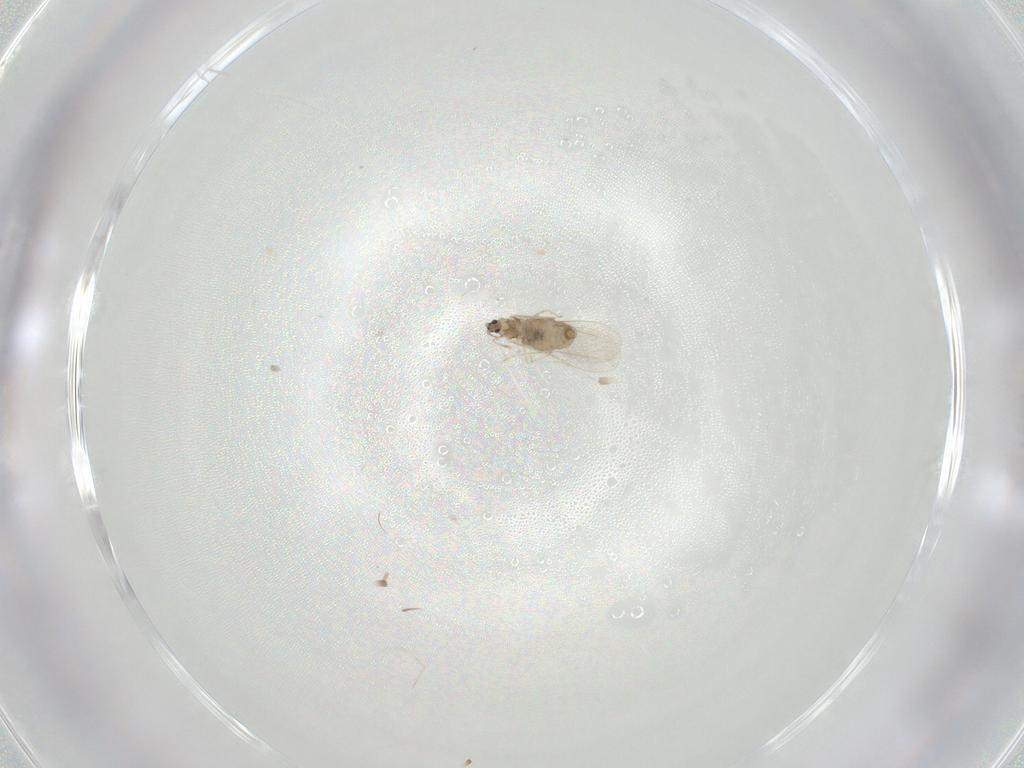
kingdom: Animalia
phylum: Arthropoda
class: Insecta
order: Diptera
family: Cecidomyiidae
